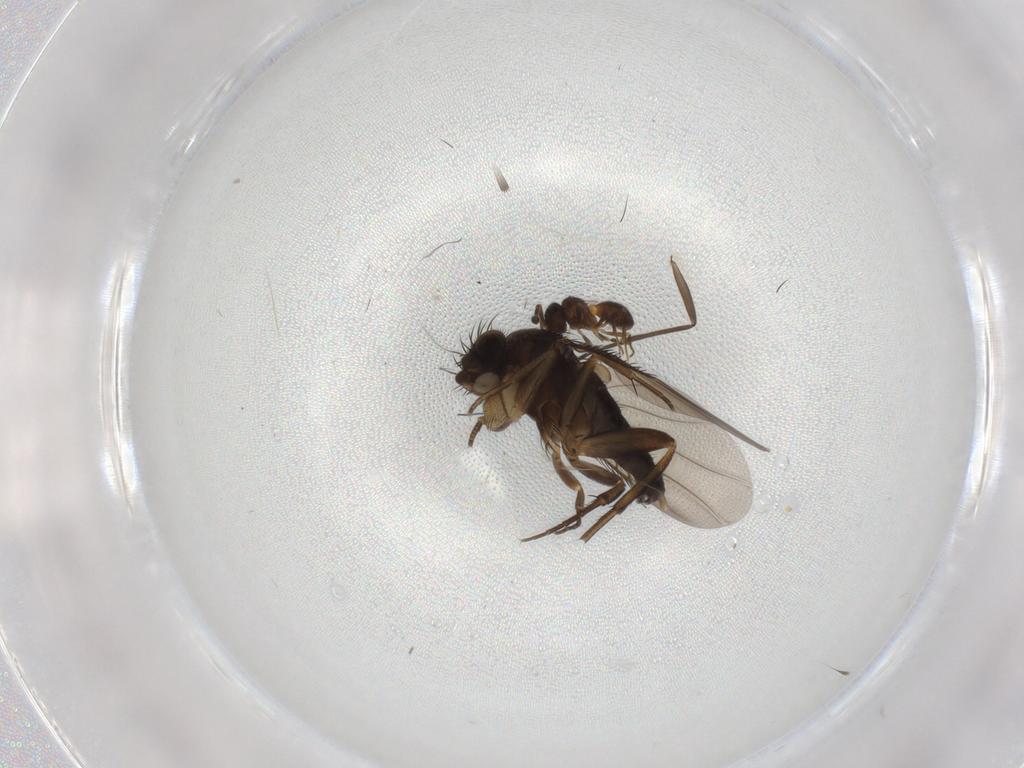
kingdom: Animalia
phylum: Arthropoda
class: Insecta
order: Diptera
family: Phoridae
